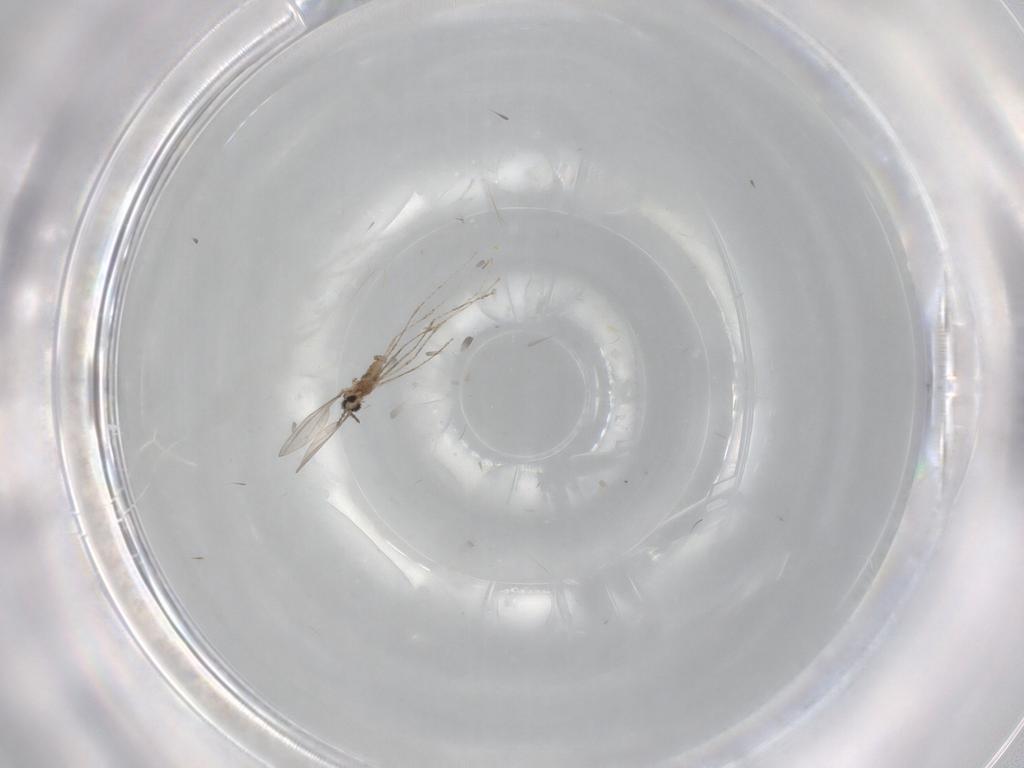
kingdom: Animalia
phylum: Arthropoda
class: Insecta
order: Diptera
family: Cecidomyiidae
